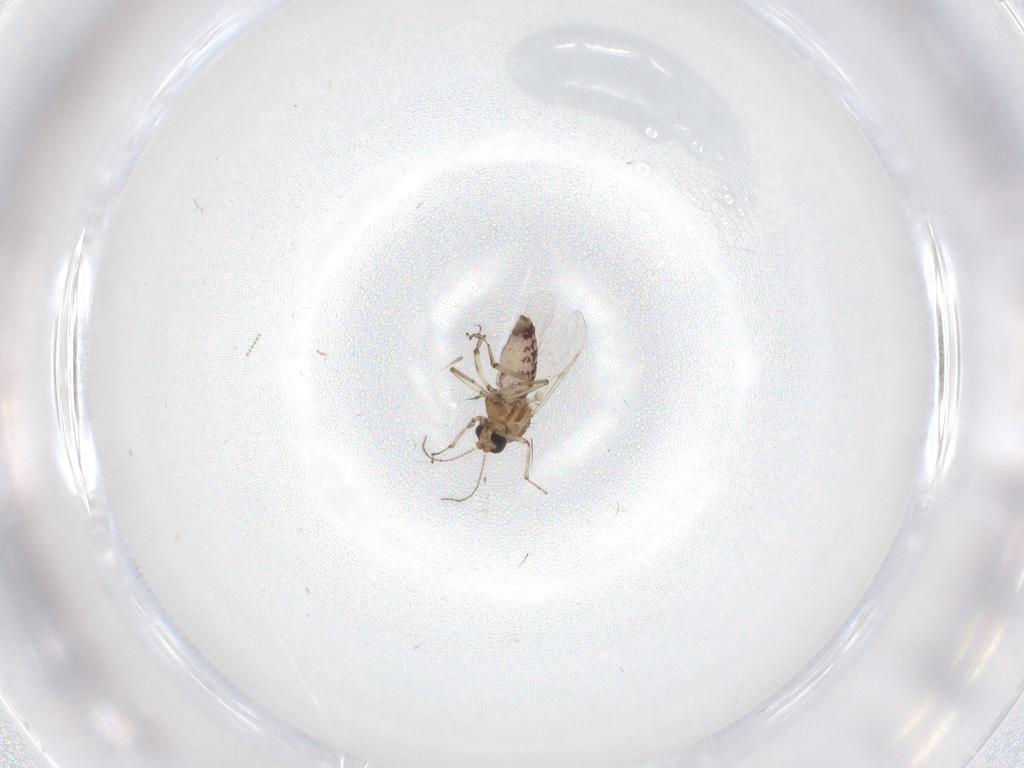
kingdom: Animalia
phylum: Arthropoda
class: Insecta
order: Diptera
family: Ceratopogonidae
